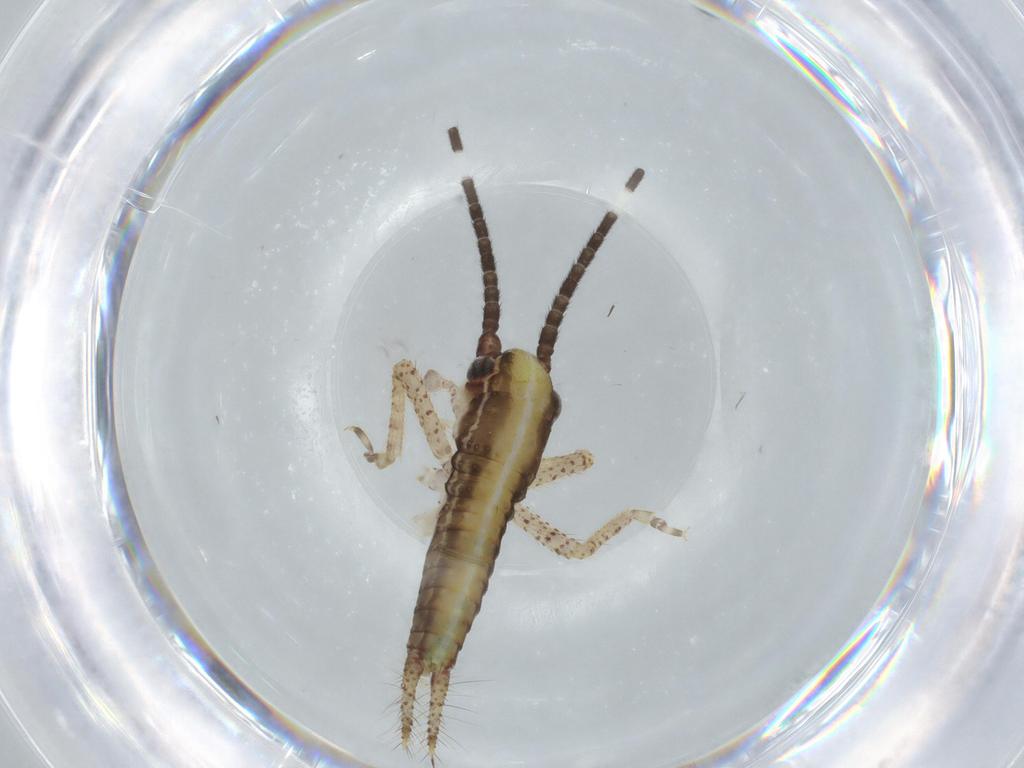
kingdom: Animalia
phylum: Arthropoda
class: Insecta
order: Orthoptera
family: Gryllidae
